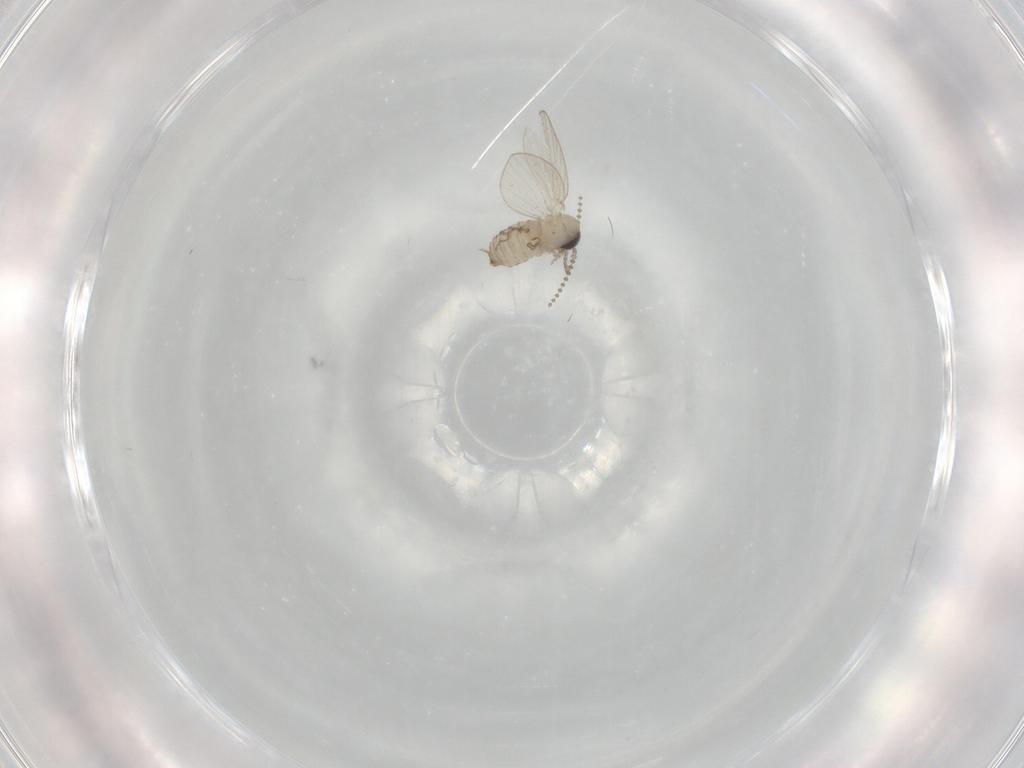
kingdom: Animalia
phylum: Arthropoda
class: Insecta
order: Diptera
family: Psychodidae
